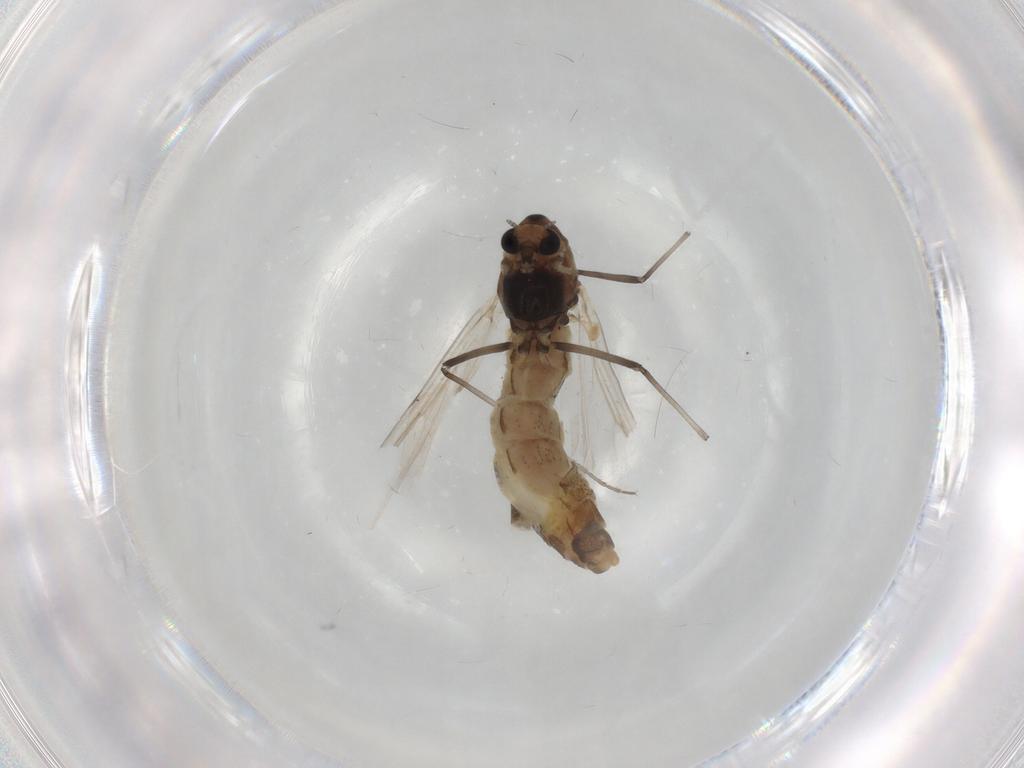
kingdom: Animalia
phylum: Arthropoda
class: Insecta
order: Diptera
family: Chironomidae
